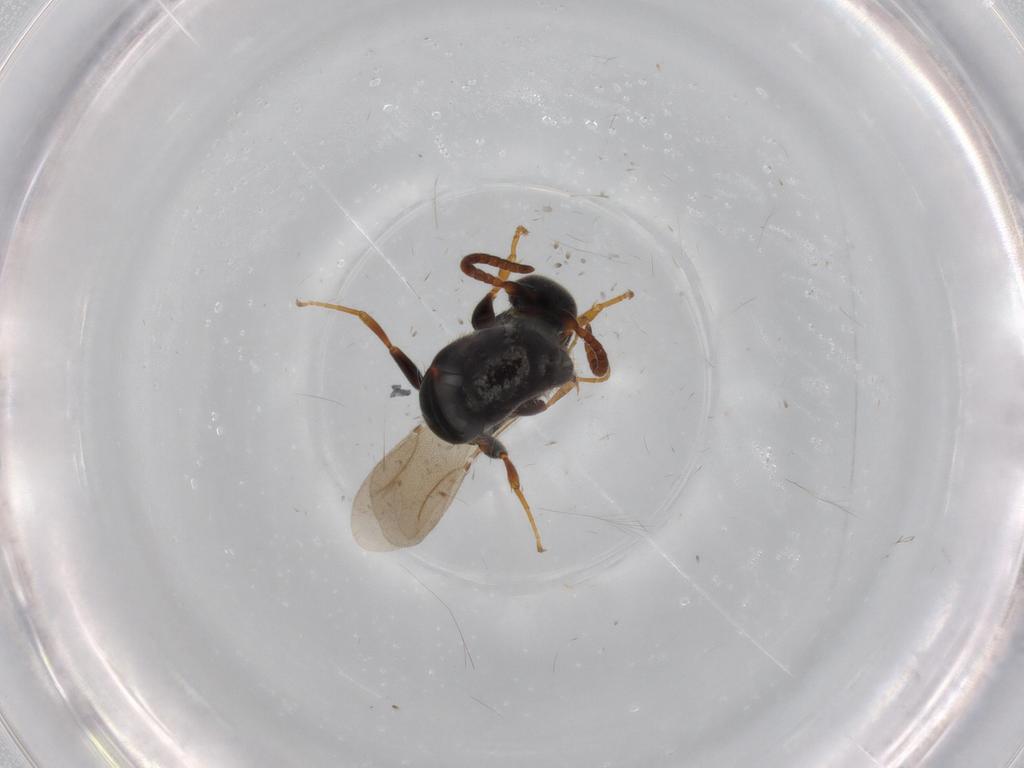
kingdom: Animalia
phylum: Arthropoda
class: Insecta
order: Hymenoptera
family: Bethylidae
